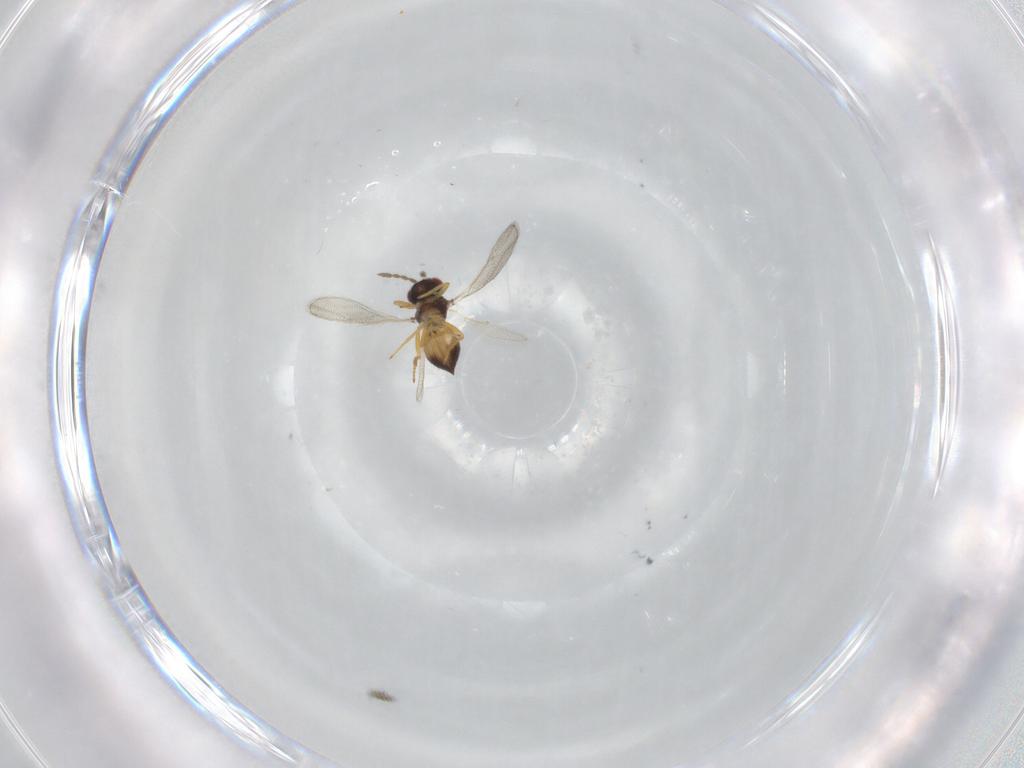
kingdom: Animalia
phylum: Arthropoda
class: Insecta
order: Hymenoptera
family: Eulophidae
